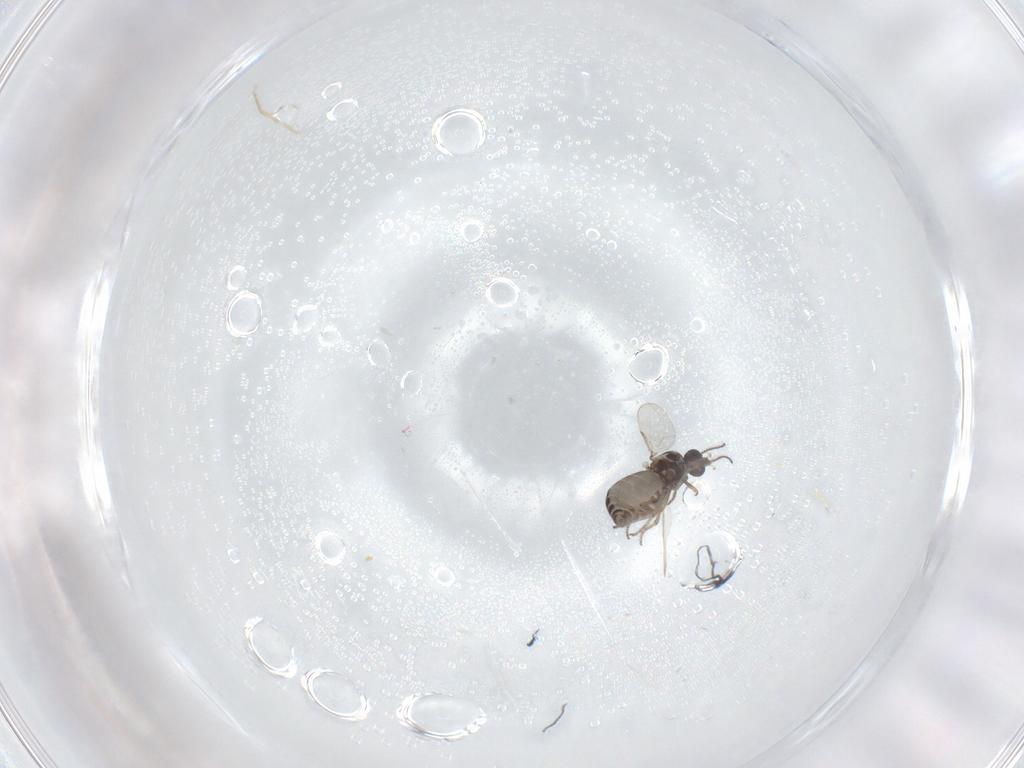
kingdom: Animalia
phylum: Arthropoda
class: Insecta
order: Diptera
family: Ceratopogonidae
